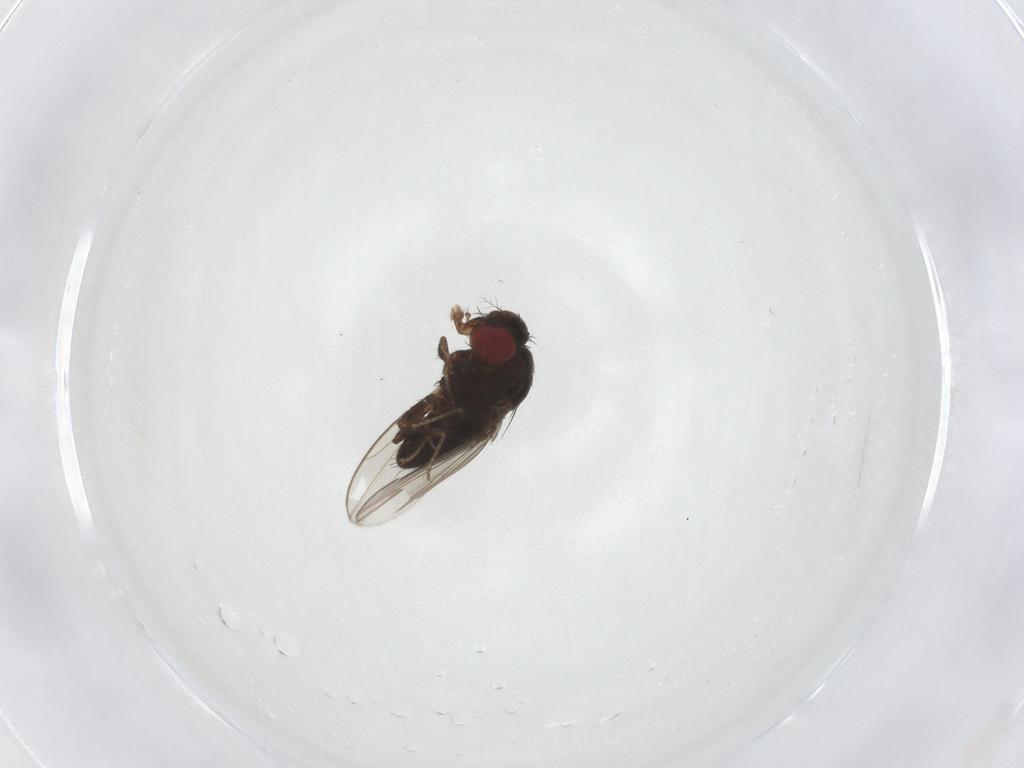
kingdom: Animalia
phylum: Arthropoda
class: Insecta
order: Diptera
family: Drosophilidae
